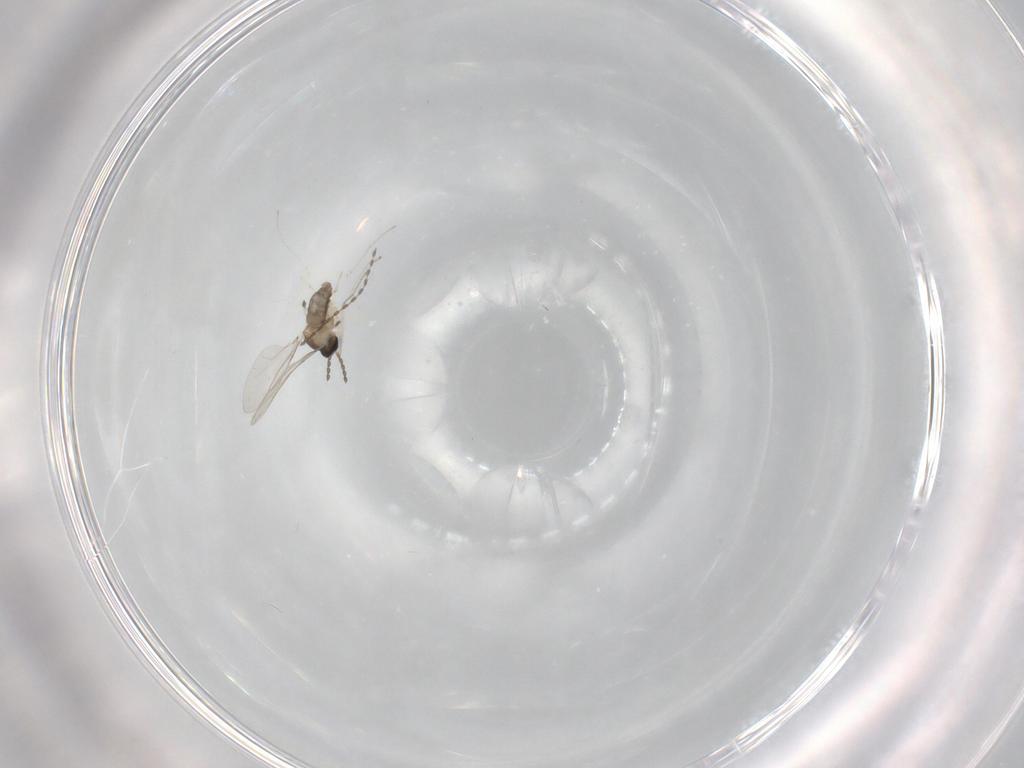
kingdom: Animalia
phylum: Arthropoda
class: Insecta
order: Diptera
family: Cecidomyiidae
